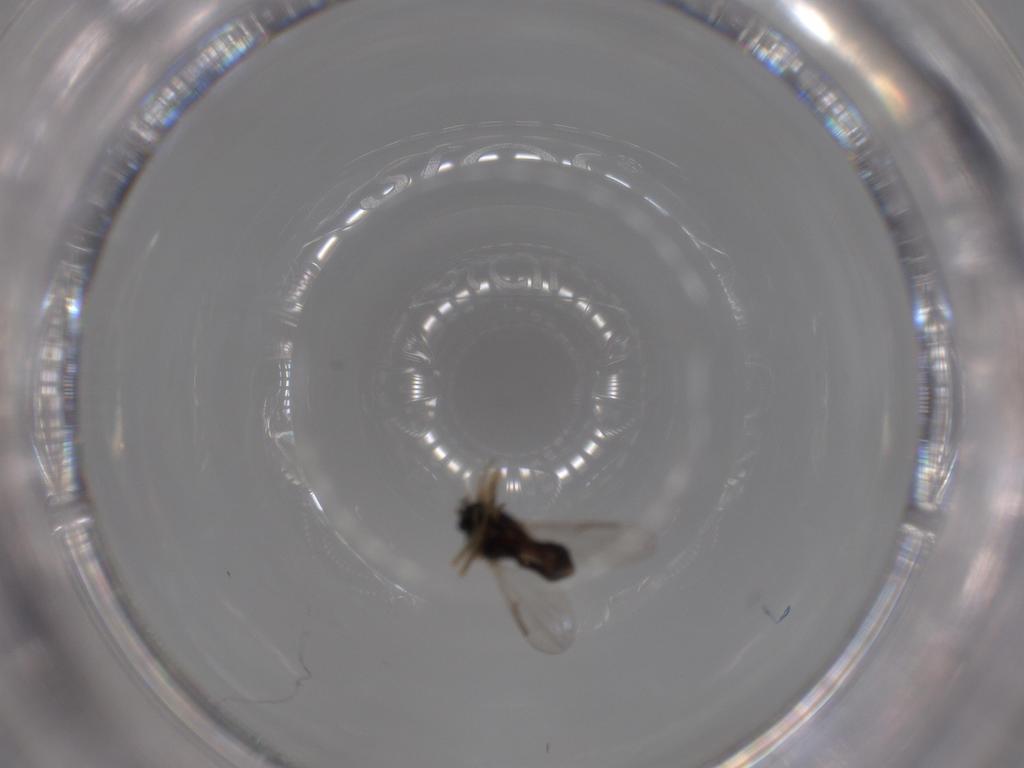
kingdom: Animalia
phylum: Arthropoda
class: Insecta
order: Diptera
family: Ceratopogonidae
